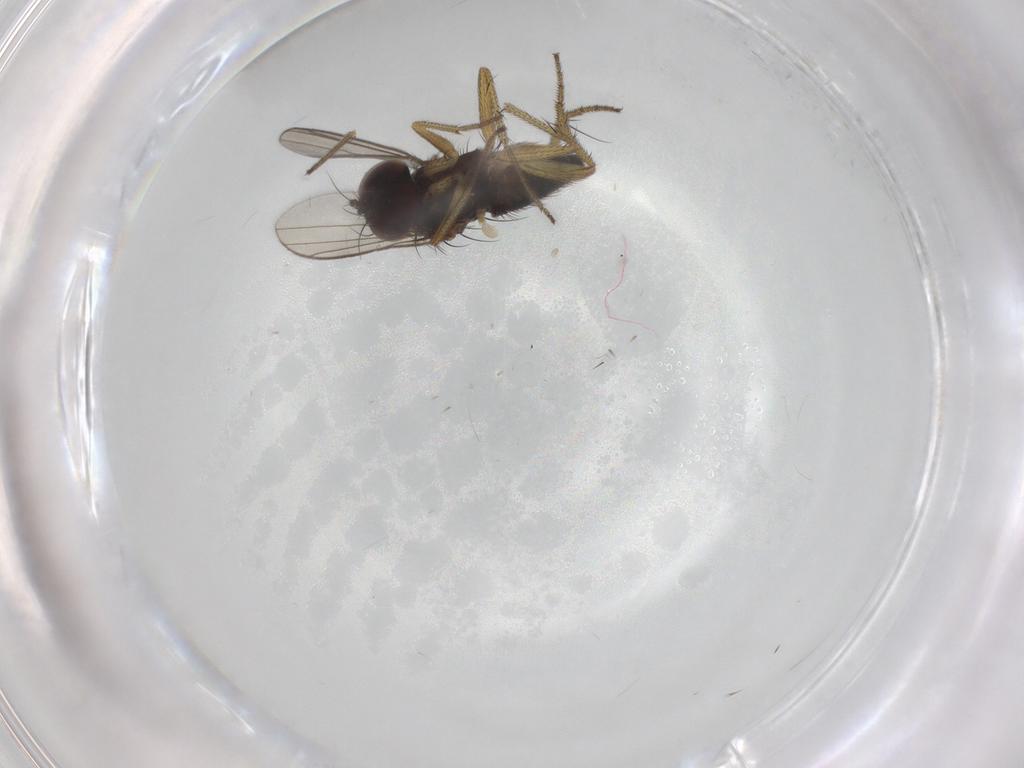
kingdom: Animalia
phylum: Arthropoda
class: Insecta
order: Diptera
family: Dolichopodidae
